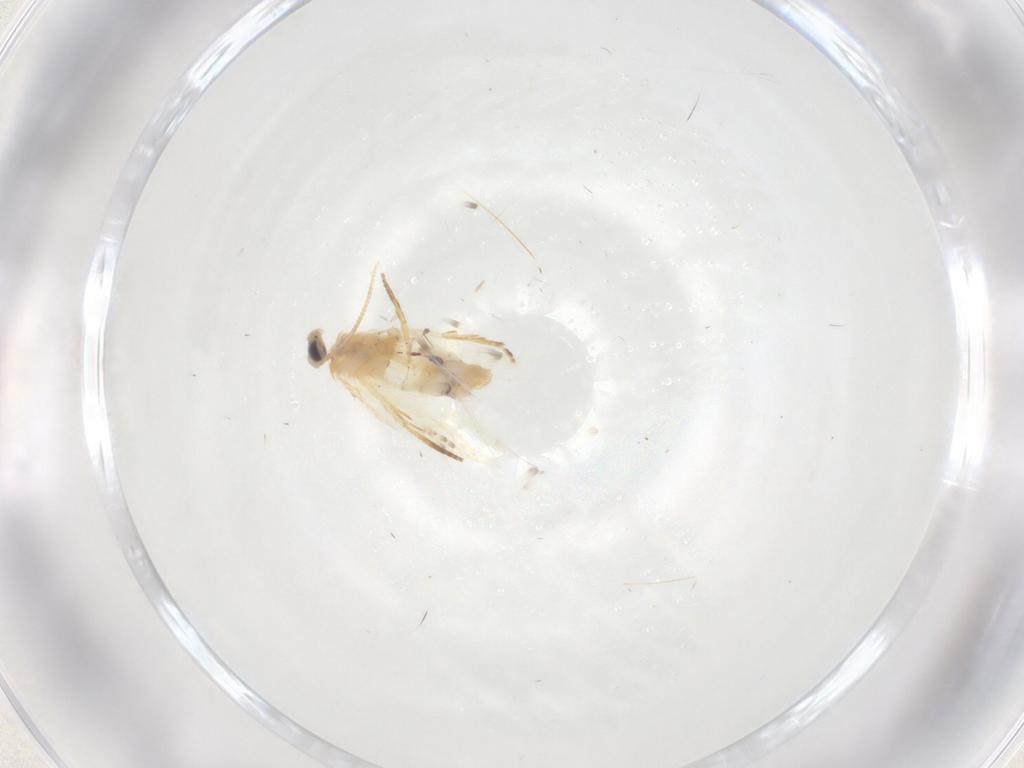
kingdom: Animalia
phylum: Arthropoda
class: Insecta
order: Lepidoptera
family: Nepticulidae
